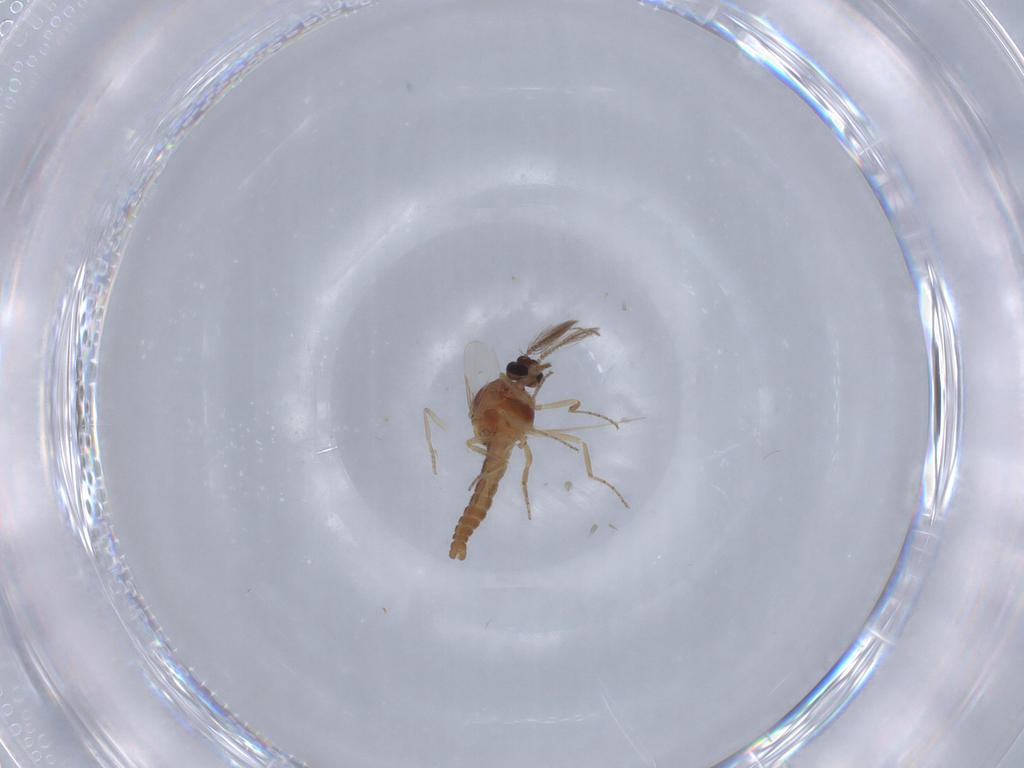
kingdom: Animalia
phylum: Arthropoda
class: Insecta
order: Diptera
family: Ceratopogonidae
